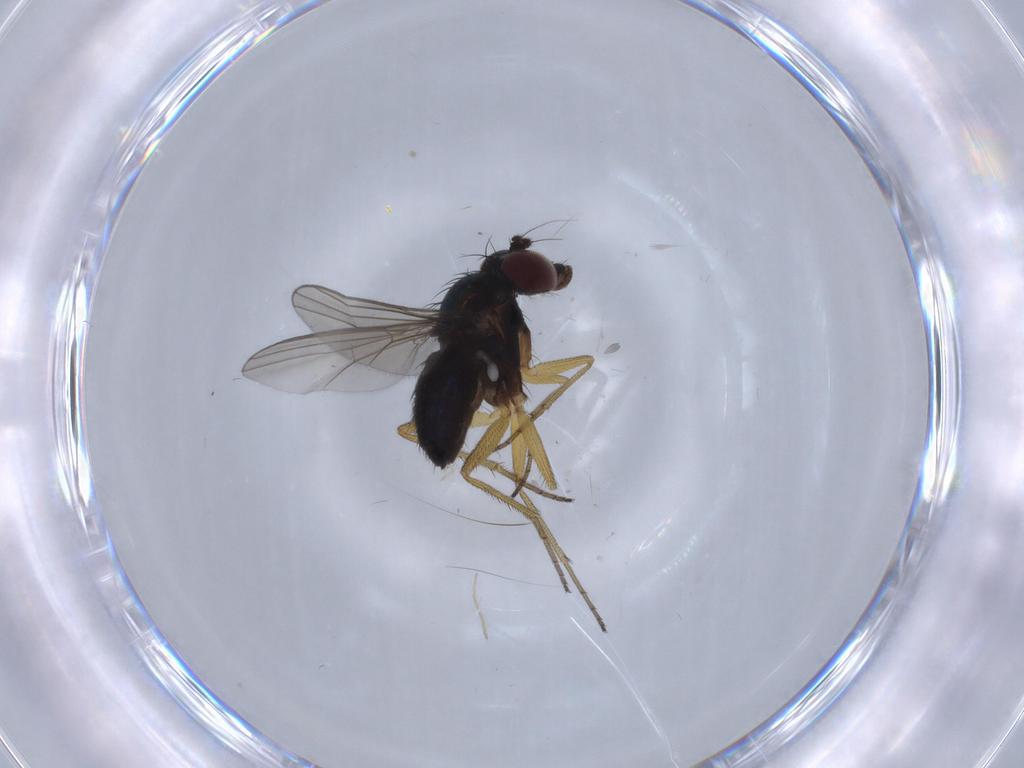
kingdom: Animalia
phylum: Arthropoda
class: Insecta
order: Diptera
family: Dolichopodidae
